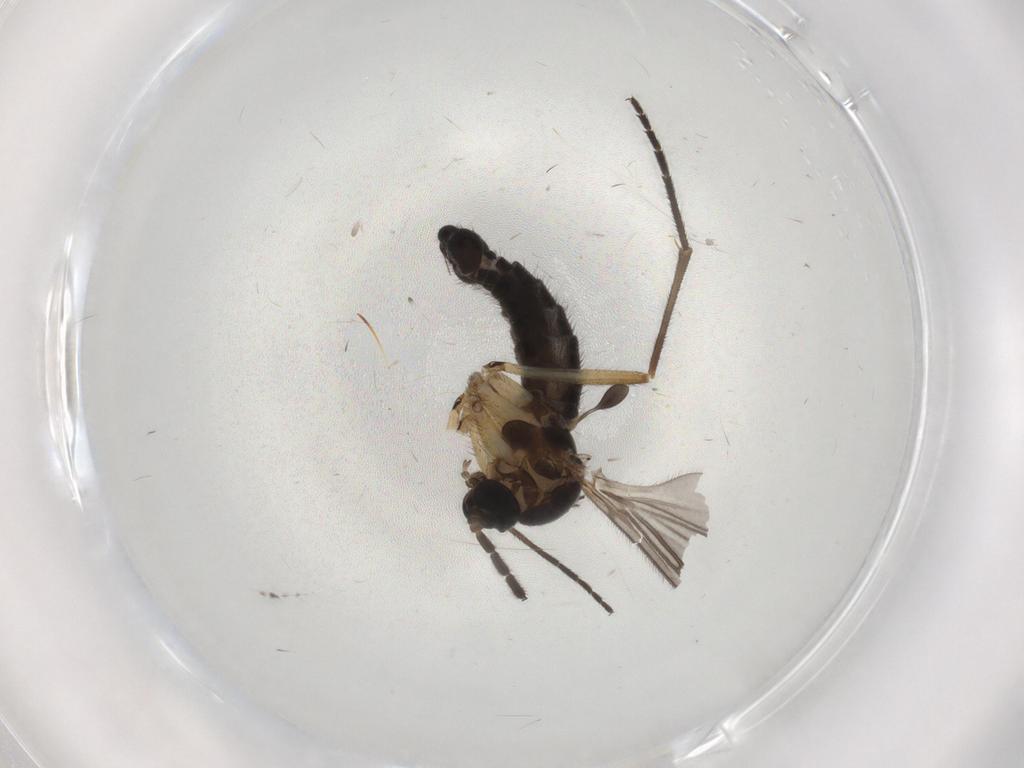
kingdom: Animalia
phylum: Arthropoda
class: Insecta
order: Diptera
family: Sciaridae
